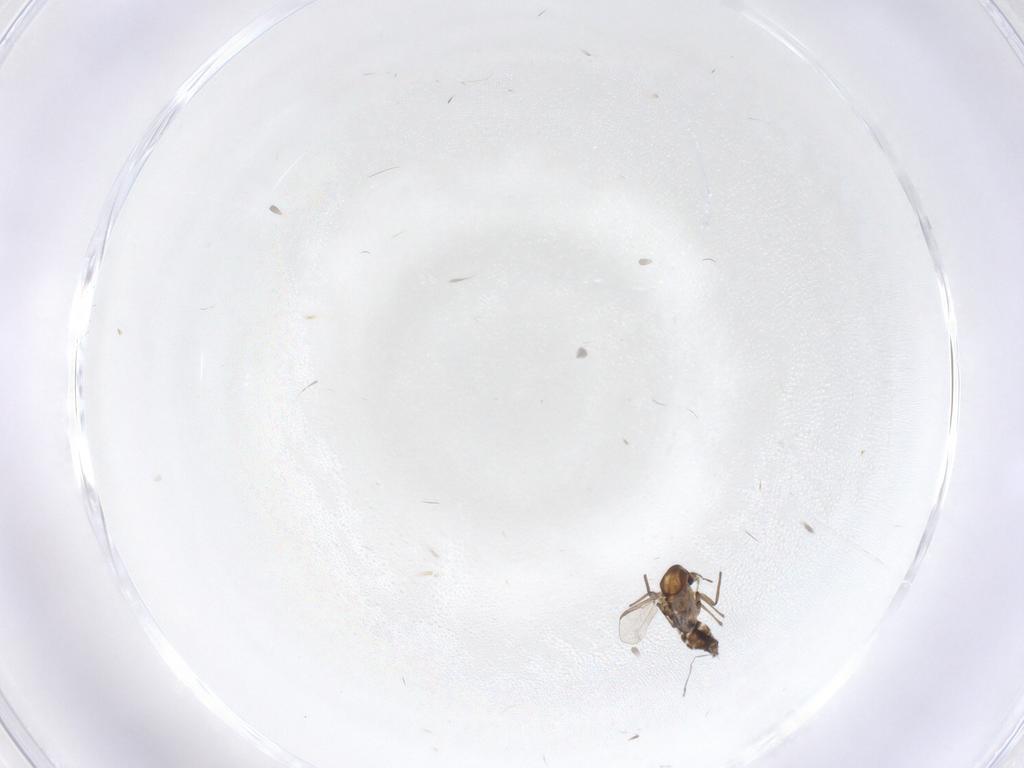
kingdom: Animalia
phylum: Arthropoda
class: Insecta
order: Diptera
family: Chironomidae
